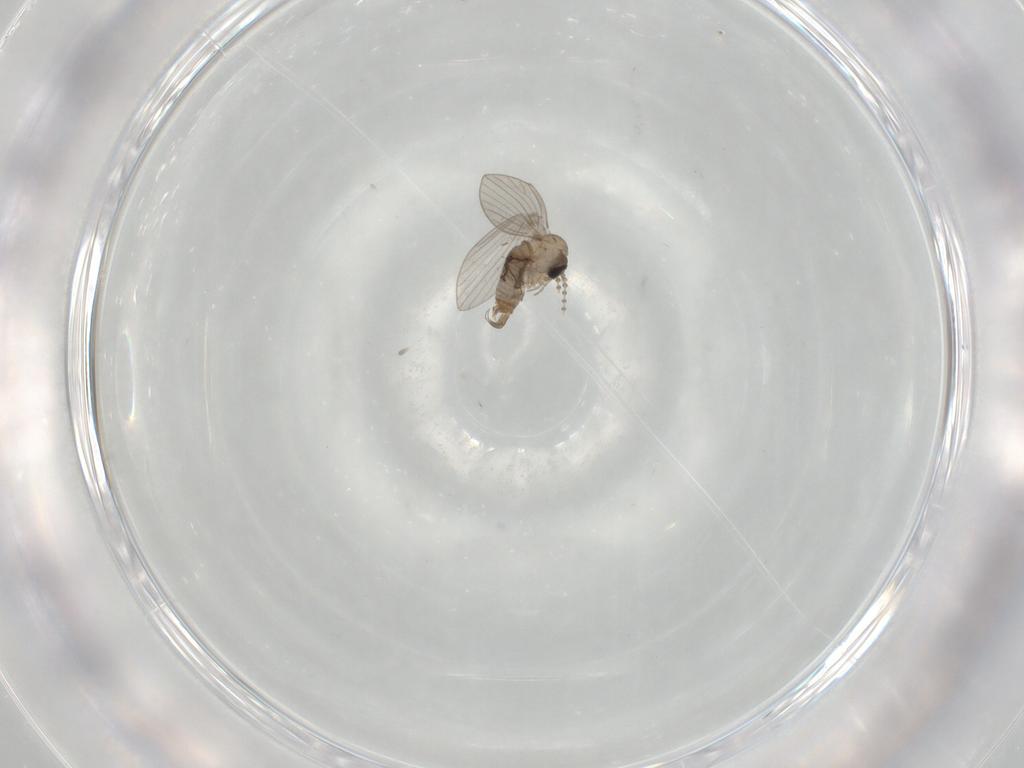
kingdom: Animalia
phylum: Arthropoda
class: Insecta
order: Diptera
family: Psychodidae
